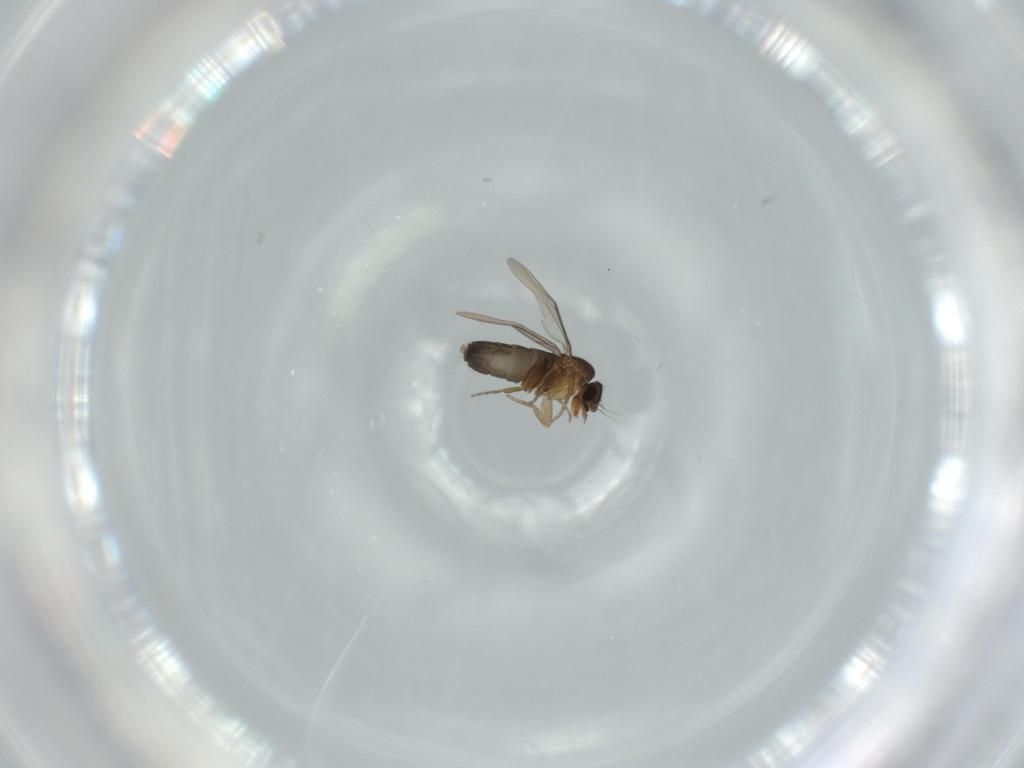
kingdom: Animalia
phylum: Arthropoda
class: Insecta
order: Diptera
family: Phoridae
